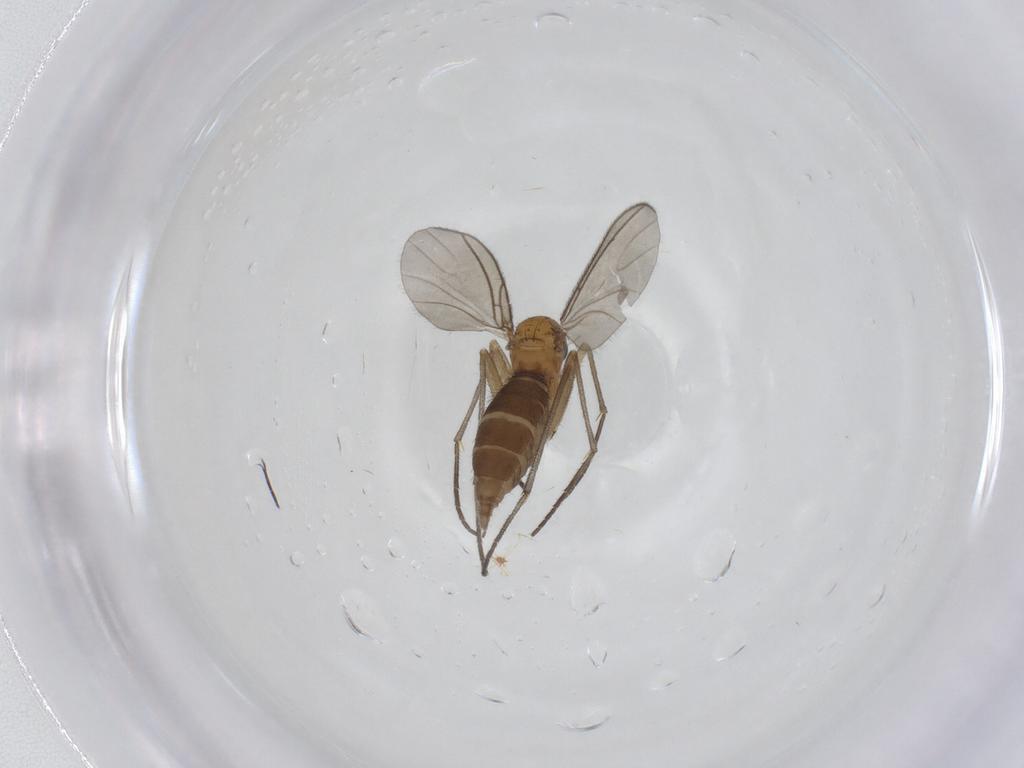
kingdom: Animalia
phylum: Arthropoda
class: Insecta
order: Diptera
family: Sciaridae
